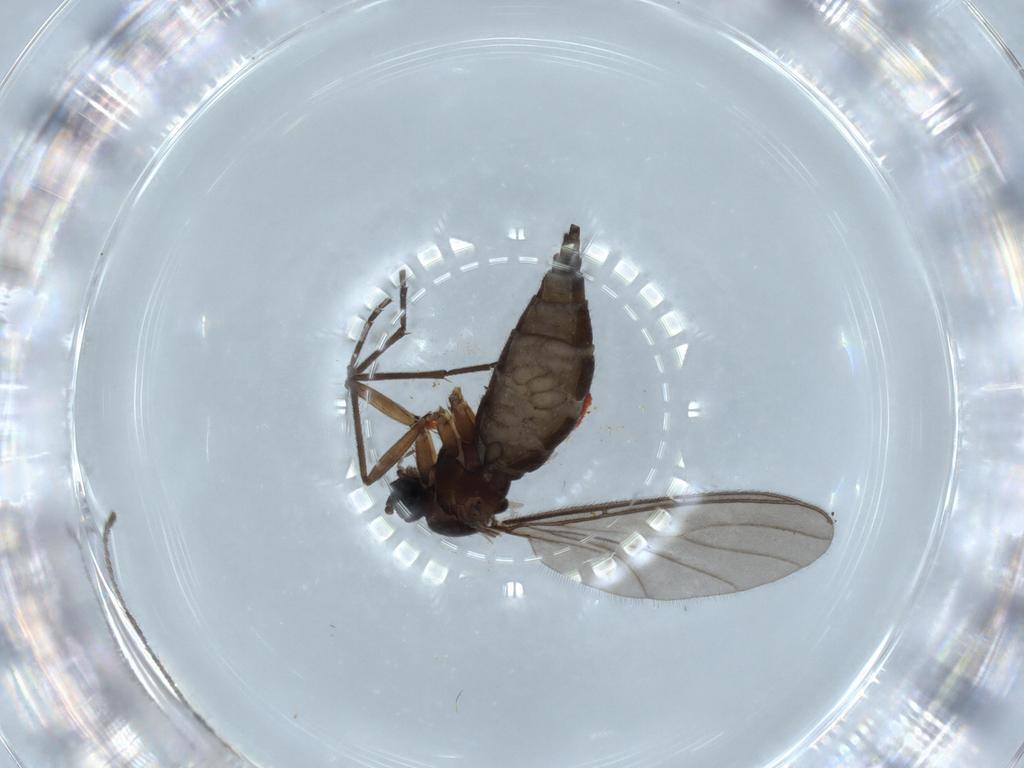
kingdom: Animalia
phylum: Arthropoda
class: Insecta
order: Diptera
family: Sciaridae
